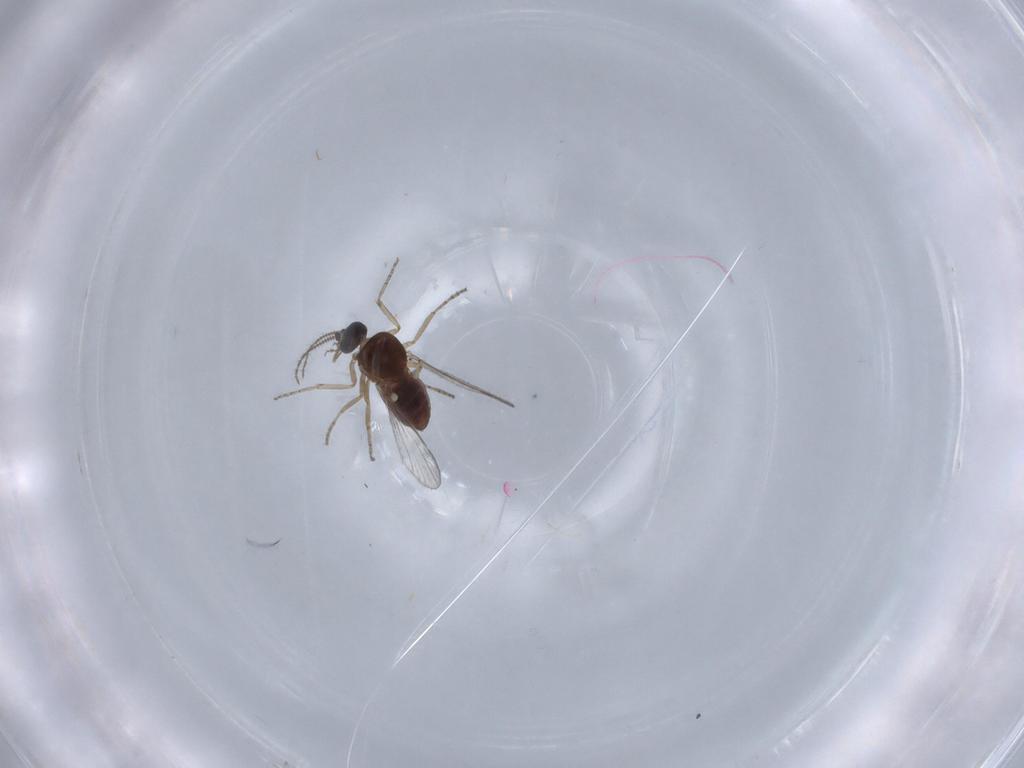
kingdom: Animalia
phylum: Arthropoda
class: Insecta
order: Diptera
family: Ceratopogonidae
